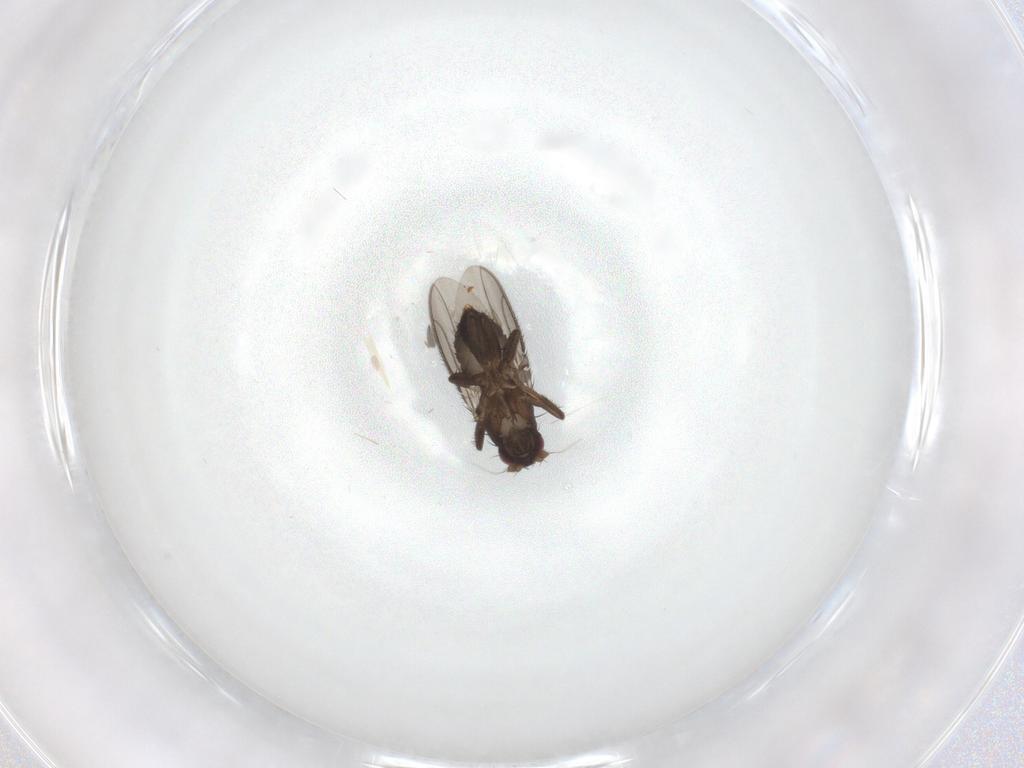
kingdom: Animalia
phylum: Arthropoda
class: Insecta
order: Diptera
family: Sphaeroceridae
